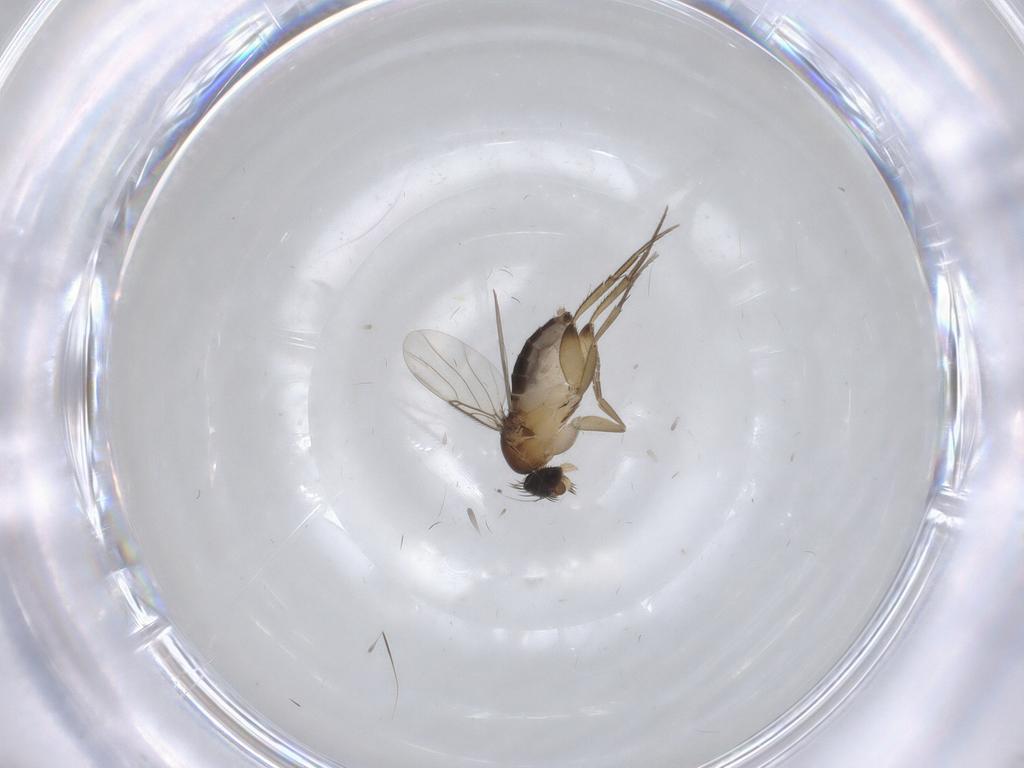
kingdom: Animalia
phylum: Arthropoda
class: Insecta
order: Diptera
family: Phoridae
